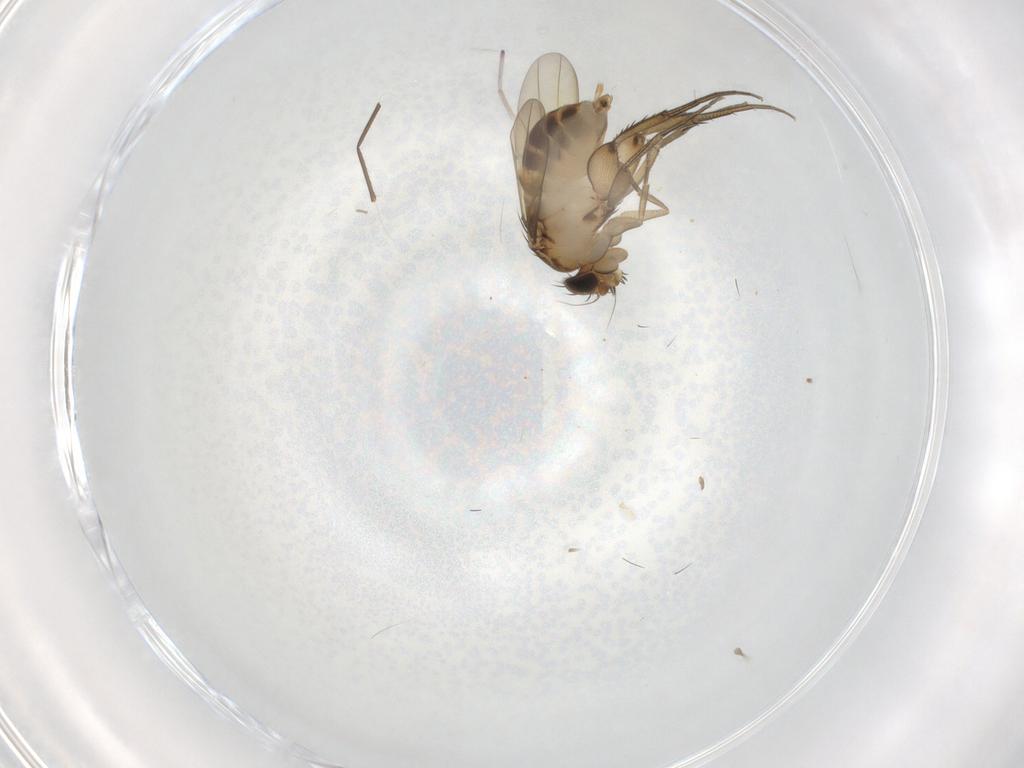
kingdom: Animalia
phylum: Arthropoda
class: Insecta
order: Diptera
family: Phoridae
